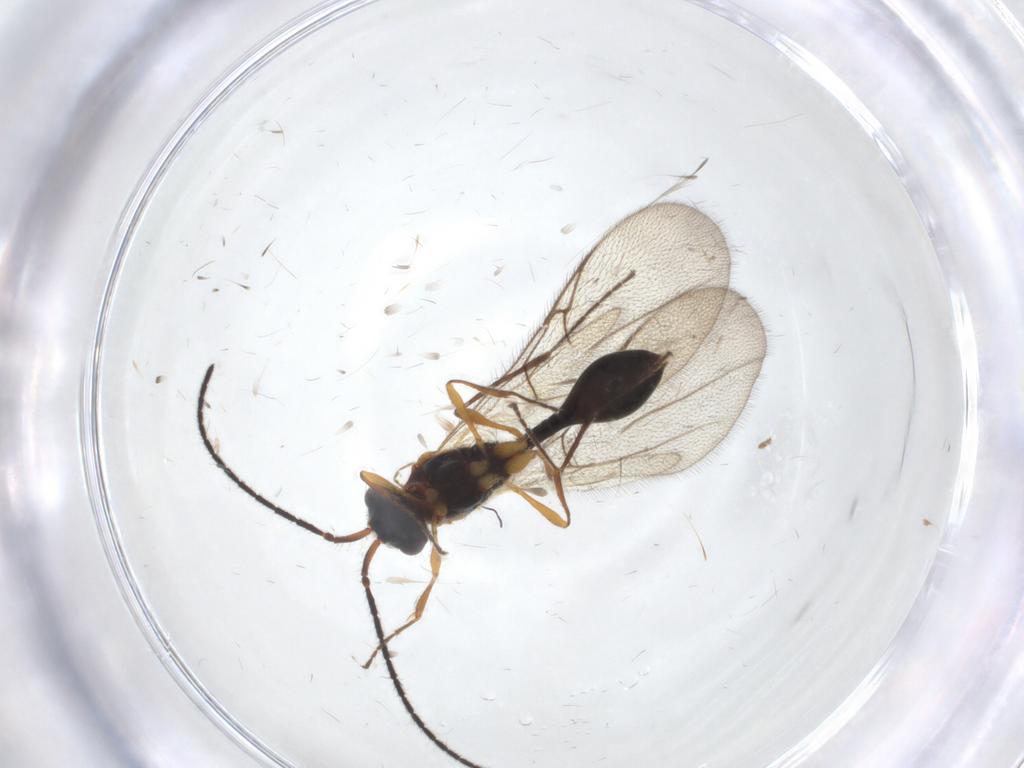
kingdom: Animalia
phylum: Arthropoda
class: Insecta
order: Hymenoptera
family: Diapriidae
